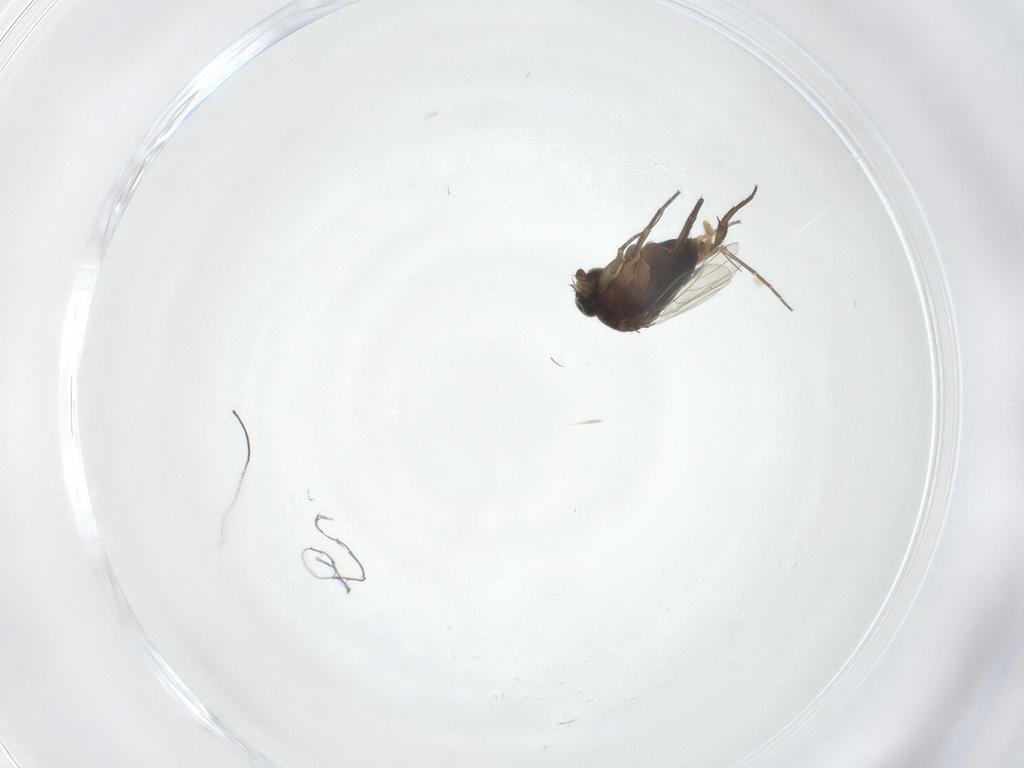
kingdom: Animalia
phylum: Arthropoda
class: Insecta
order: Diptera
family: Phoridae
